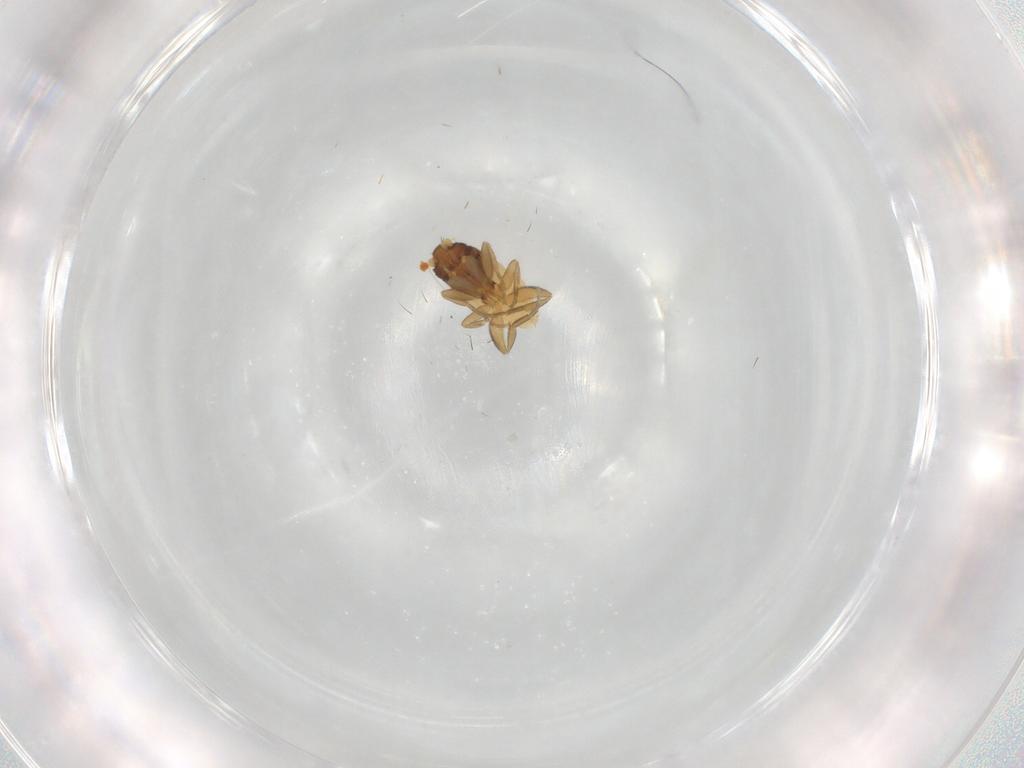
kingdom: Animalia
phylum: Arthropoda
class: Insecta
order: Diptera
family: Phoridae
